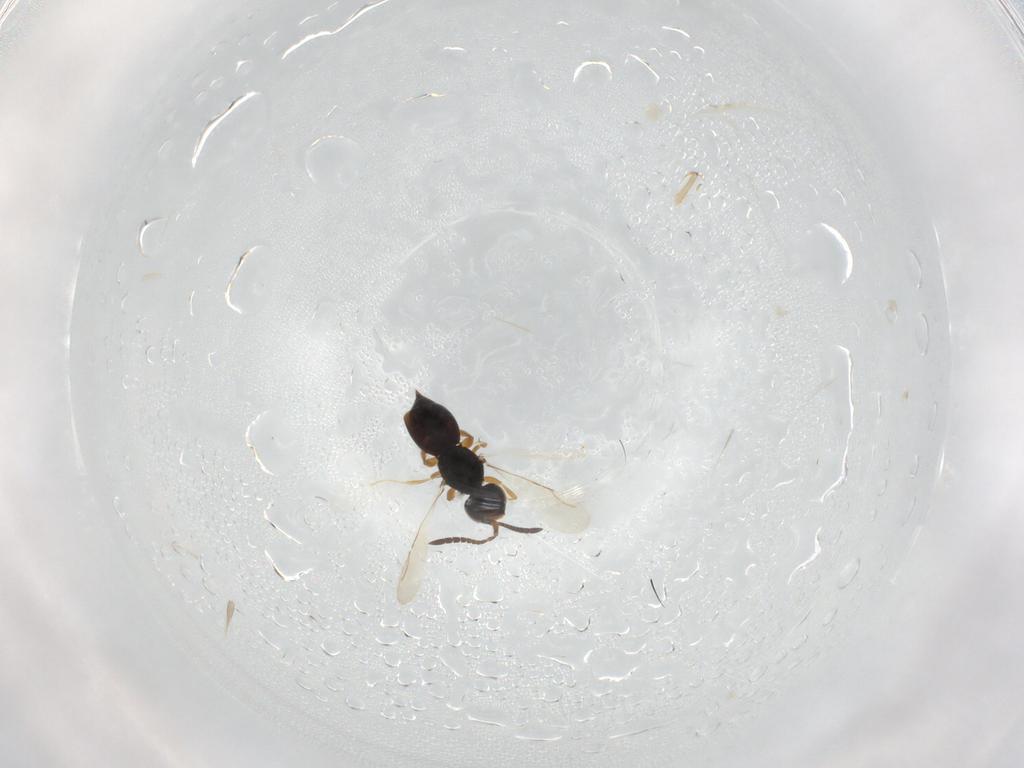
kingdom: Animalia
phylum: Arthropoda
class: Insecta
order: Hymenoptera
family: Ceraphronidae
